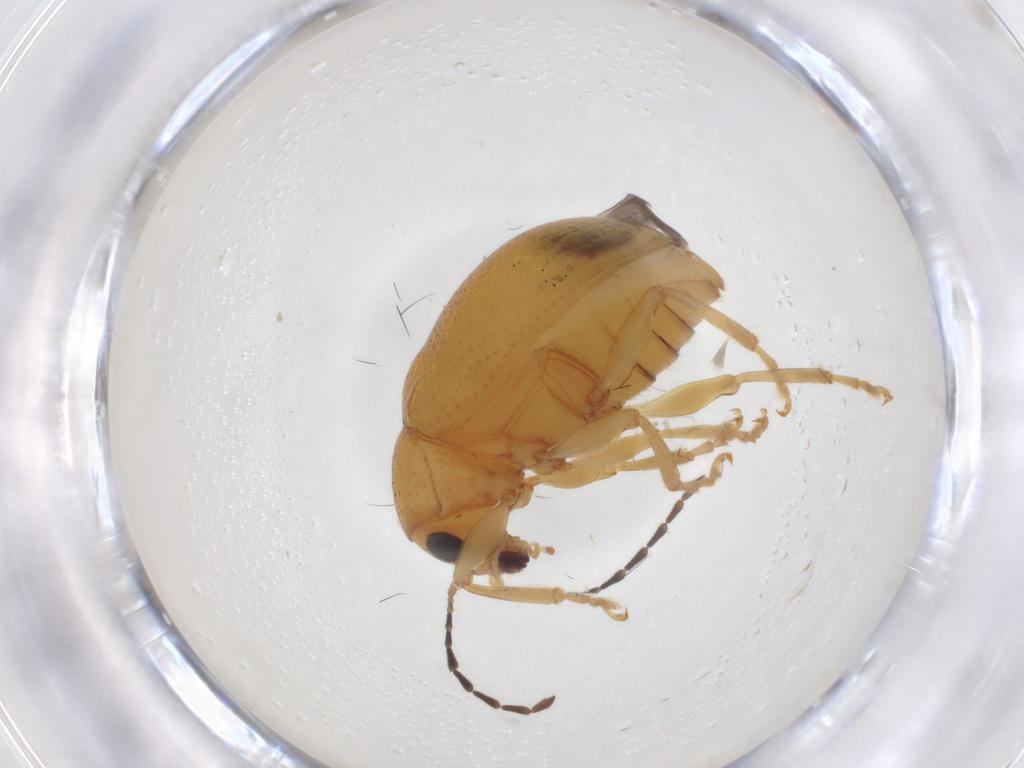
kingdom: Animalia
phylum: Arthropoda
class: Insecta
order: Coleoptera
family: Chrysomelidae
